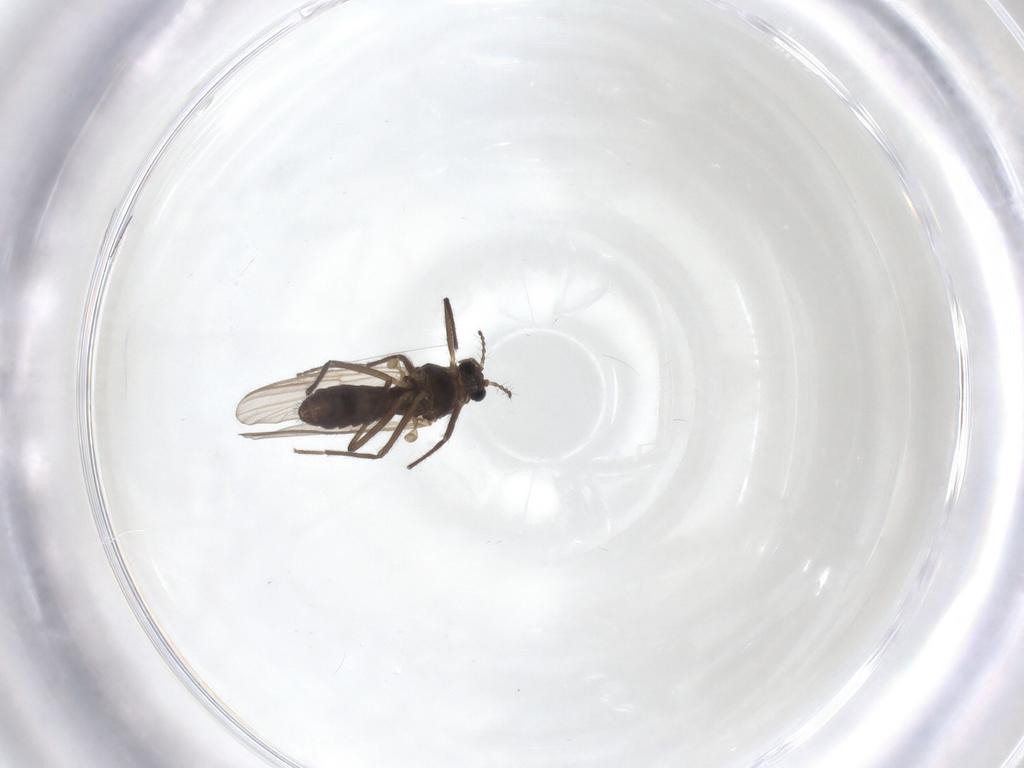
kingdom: Animalia
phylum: Arthropoda
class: Insecta
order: Diptera
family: Chironomidae
